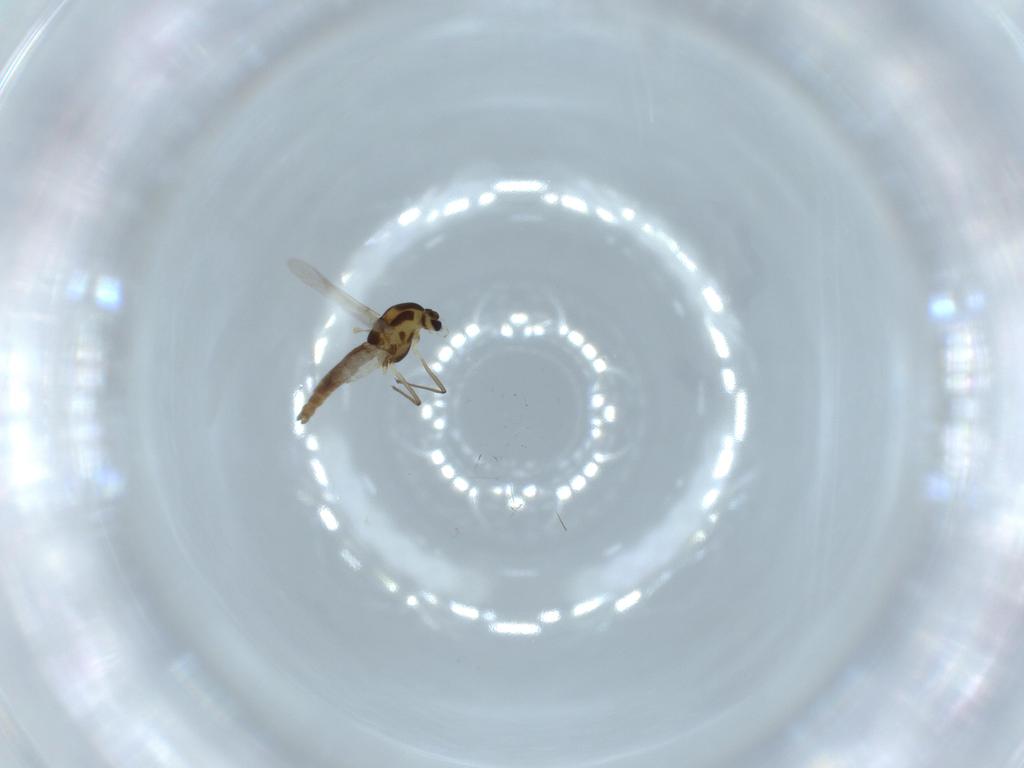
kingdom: Animalia
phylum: Arthropoda
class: Insecta
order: Diptera
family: Chironomidae
